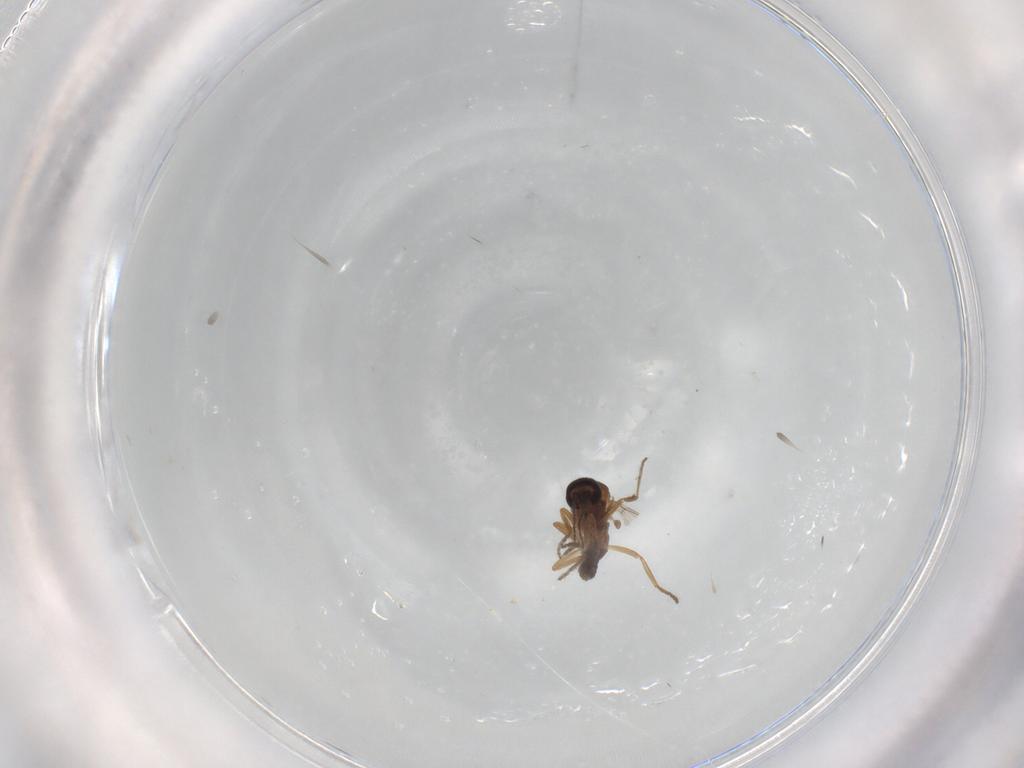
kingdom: Animalia
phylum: Arthropoda
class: Insecta
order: Diptera
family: Ceratopogonidae
